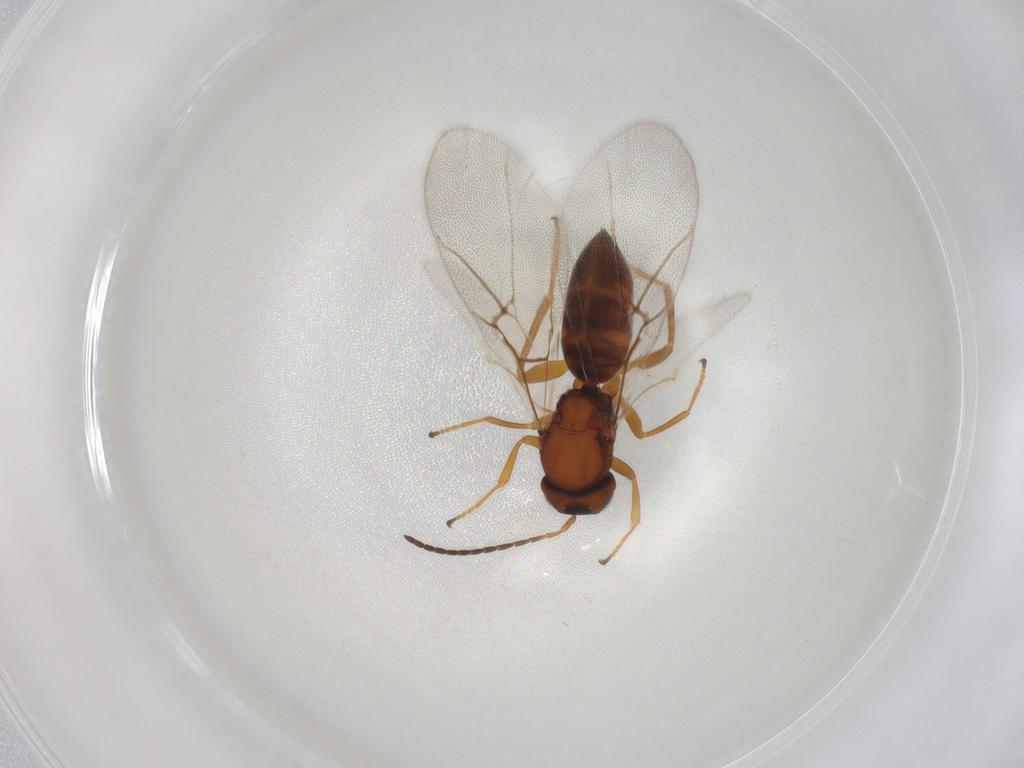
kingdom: Animalia
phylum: Arthropoda
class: Insecta
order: Hymenoptera
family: Cynipidae
